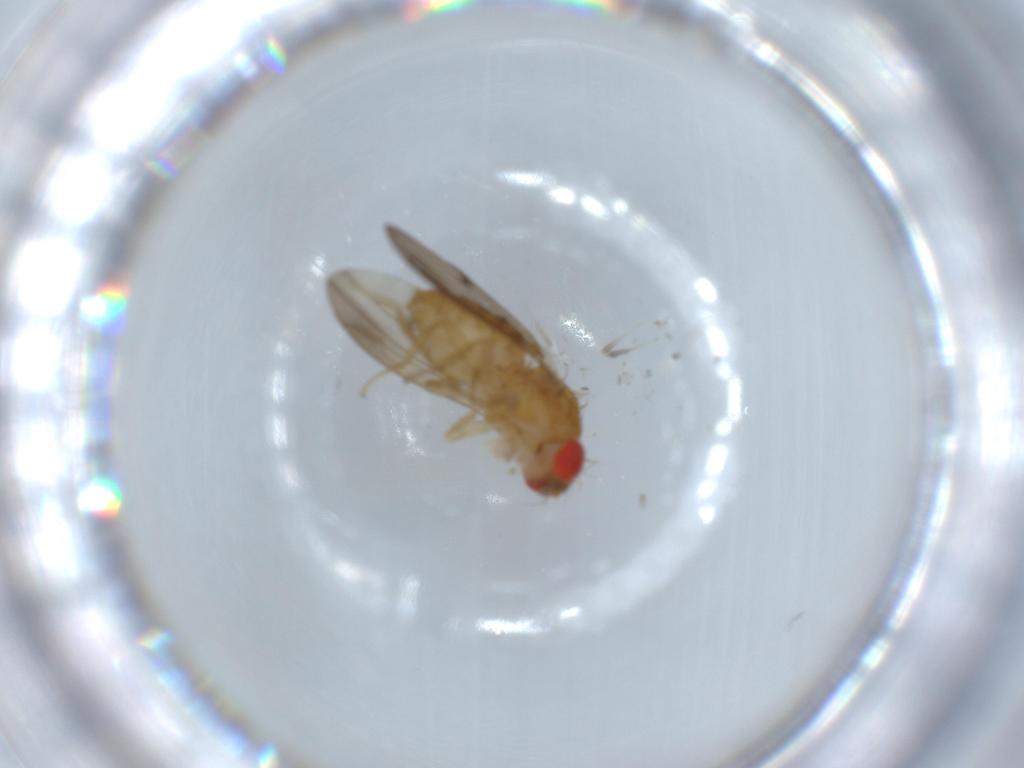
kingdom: Animalia
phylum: Arthropoda
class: Insecta
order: Diptera
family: Drosophilidae
